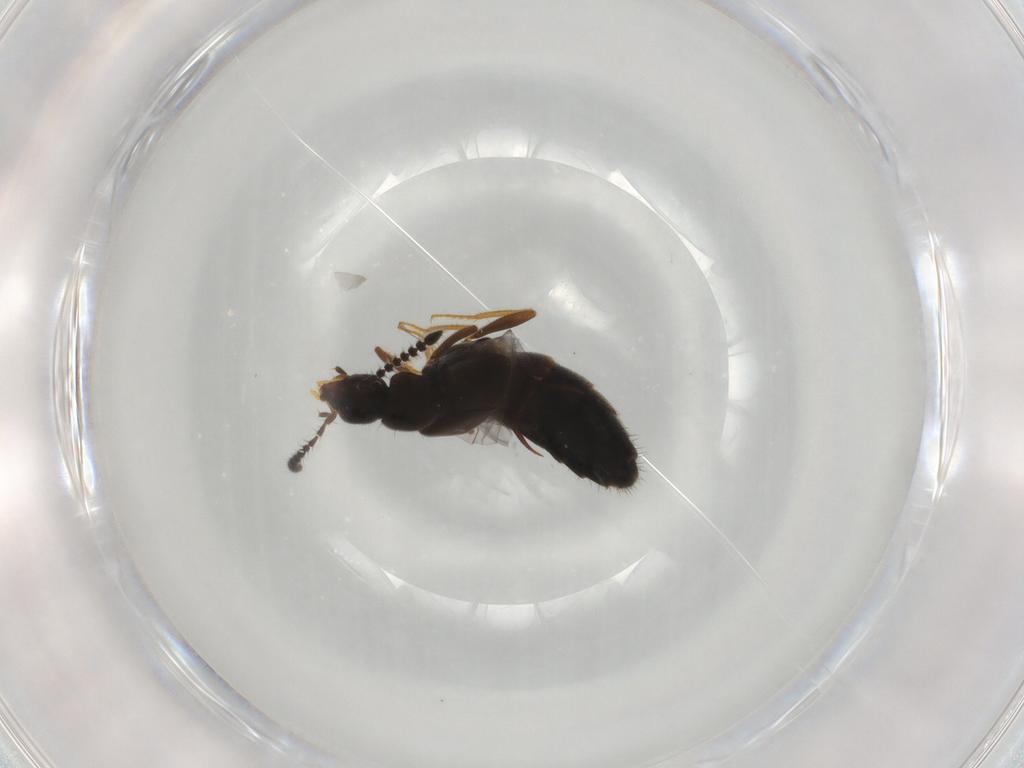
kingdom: Animalia
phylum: Arthropoda
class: Insecta
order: Coleoptera
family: Staphylinidae
